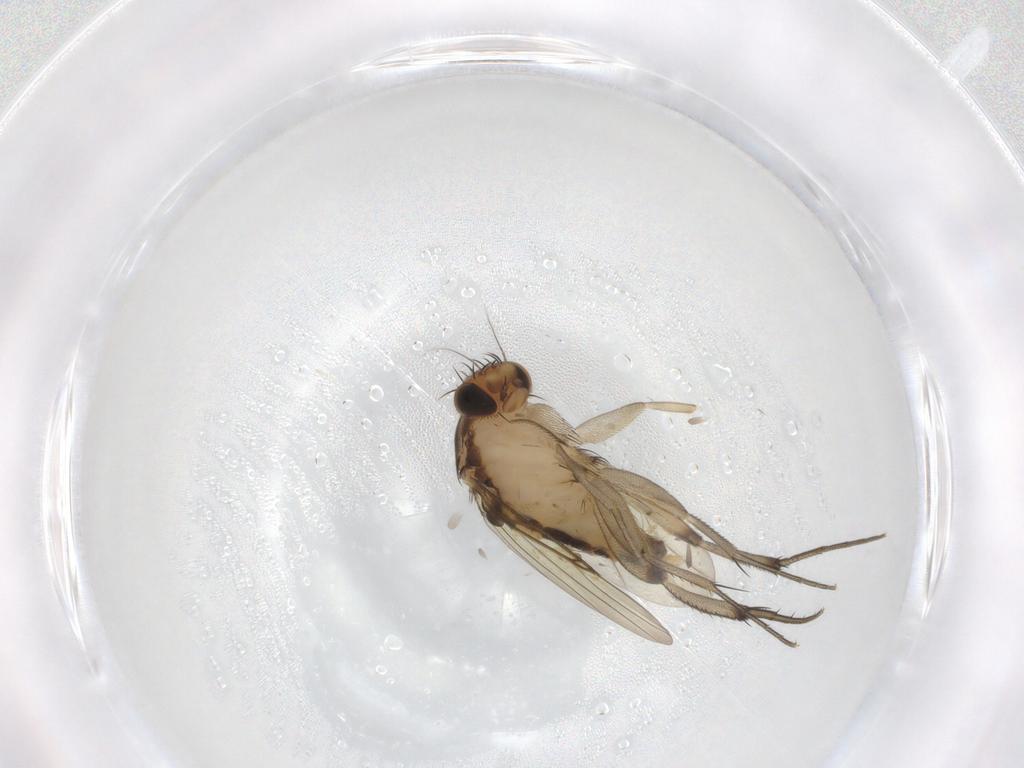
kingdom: Animalia
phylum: Arthropoda
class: Insecta
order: Diptera
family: Phoridae
